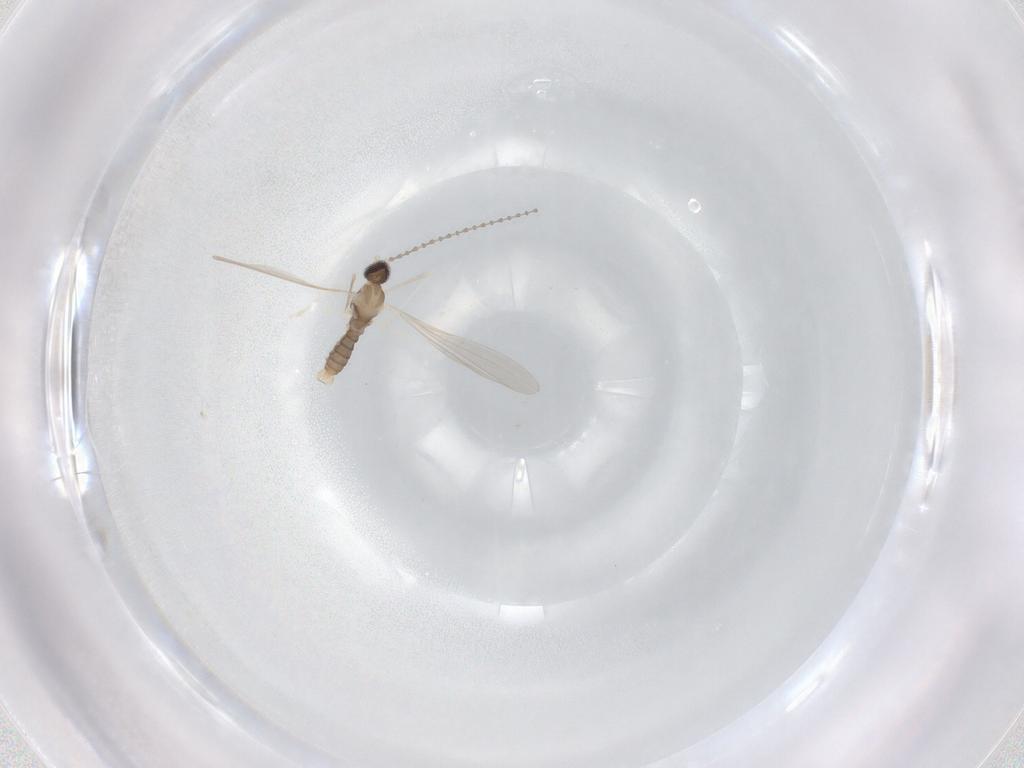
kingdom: Animalia
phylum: Arthropoda
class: Insecta
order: Diptera
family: Cecidomyiidae
